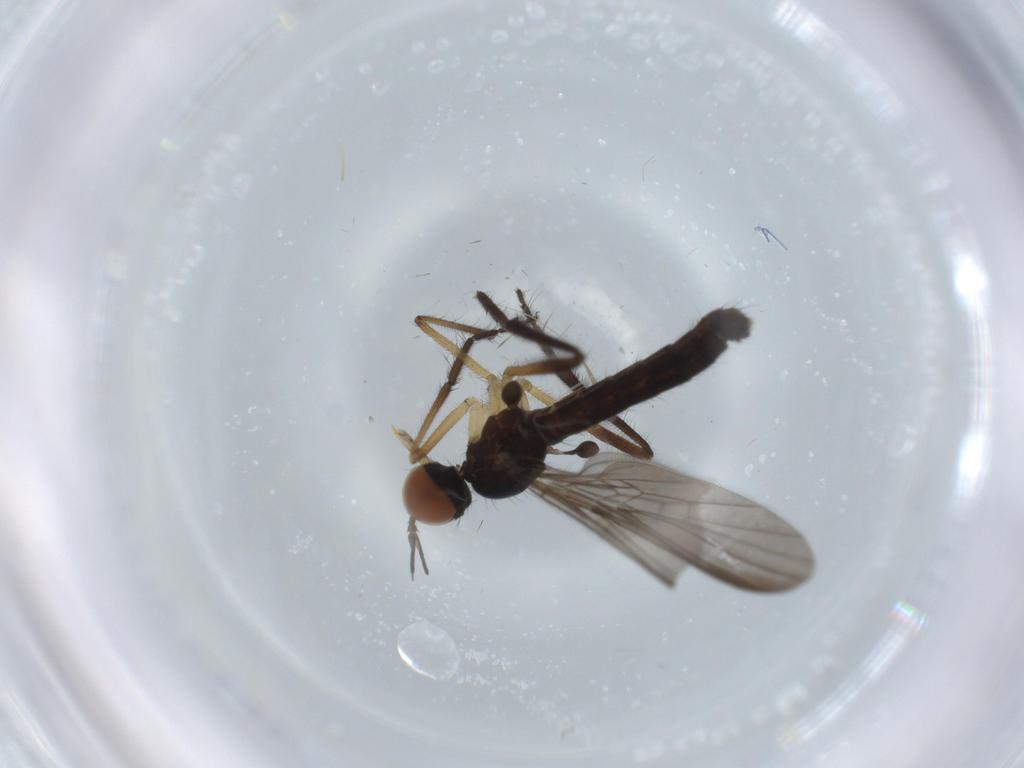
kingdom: Animalia
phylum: Arthropoda
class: Insecta
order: Diptera
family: Empididae
